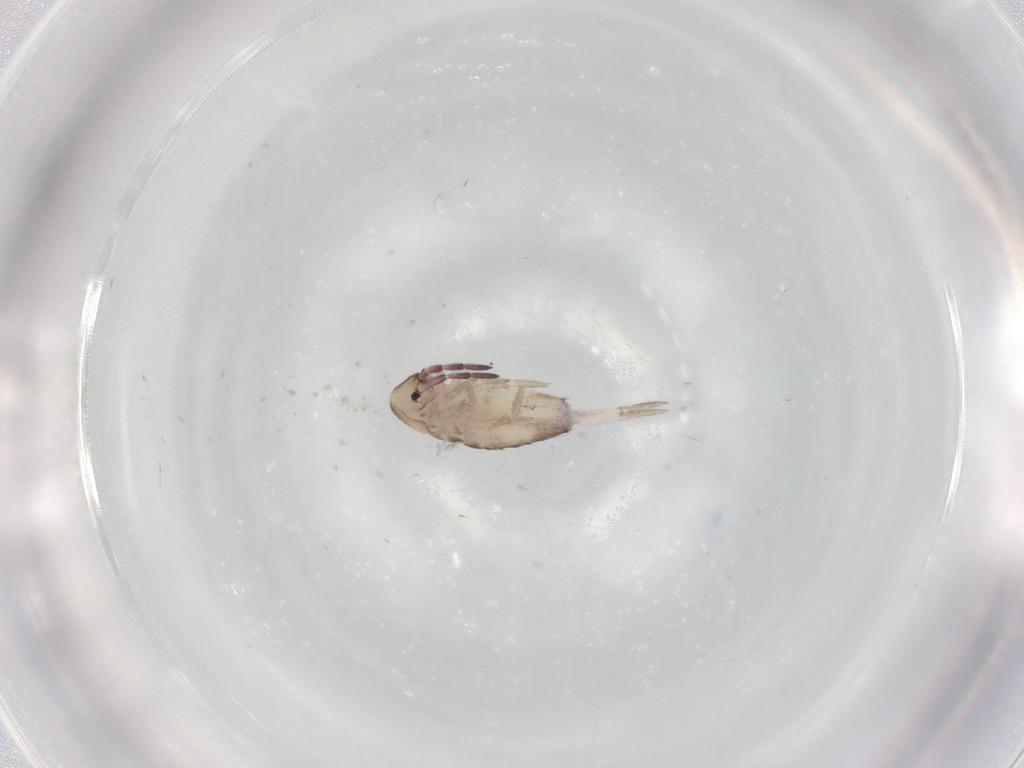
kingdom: Animalia
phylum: Arthropoda
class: Collembola
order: Entomobryomorpha
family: Entomobryidae
